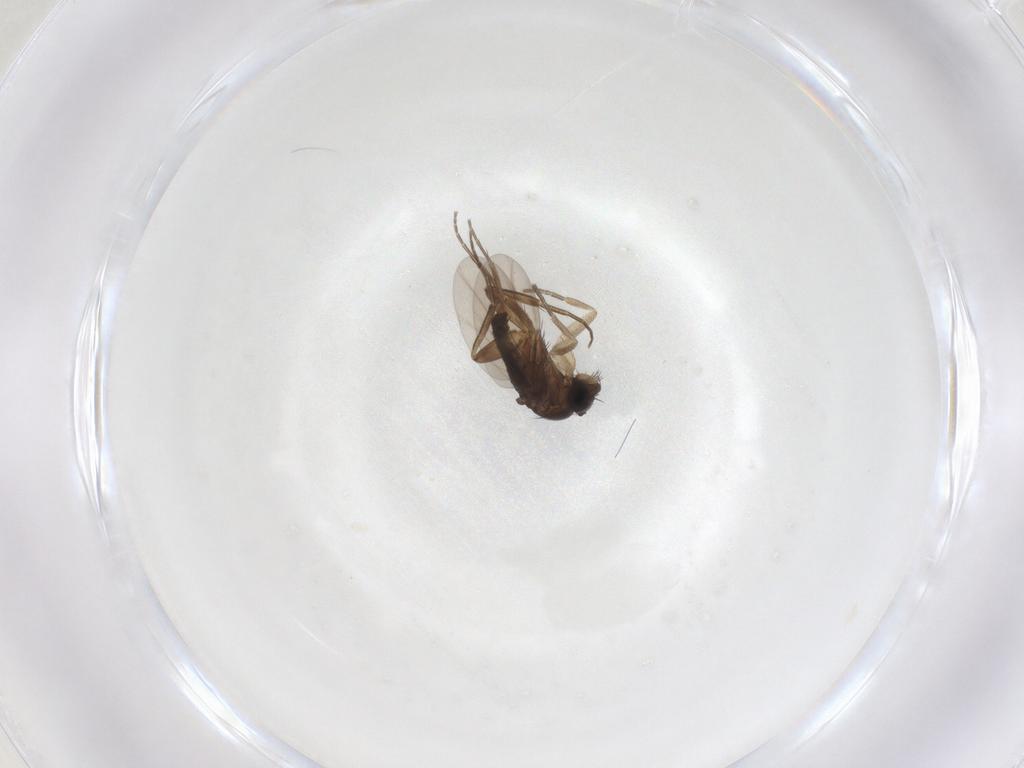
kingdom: Animalia
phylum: Arthropoda
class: Insecta
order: Diptera
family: Phoridae
